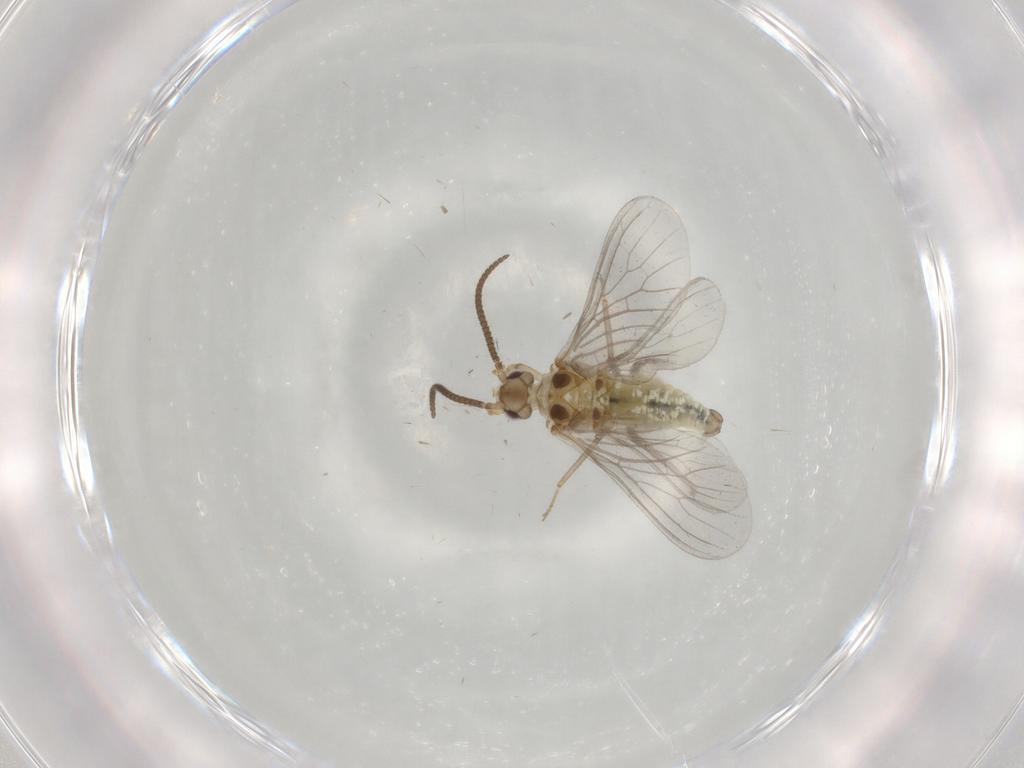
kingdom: Animalia
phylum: Arthropoda
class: Insecta
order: Neuroptera
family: Coniopterygidae
